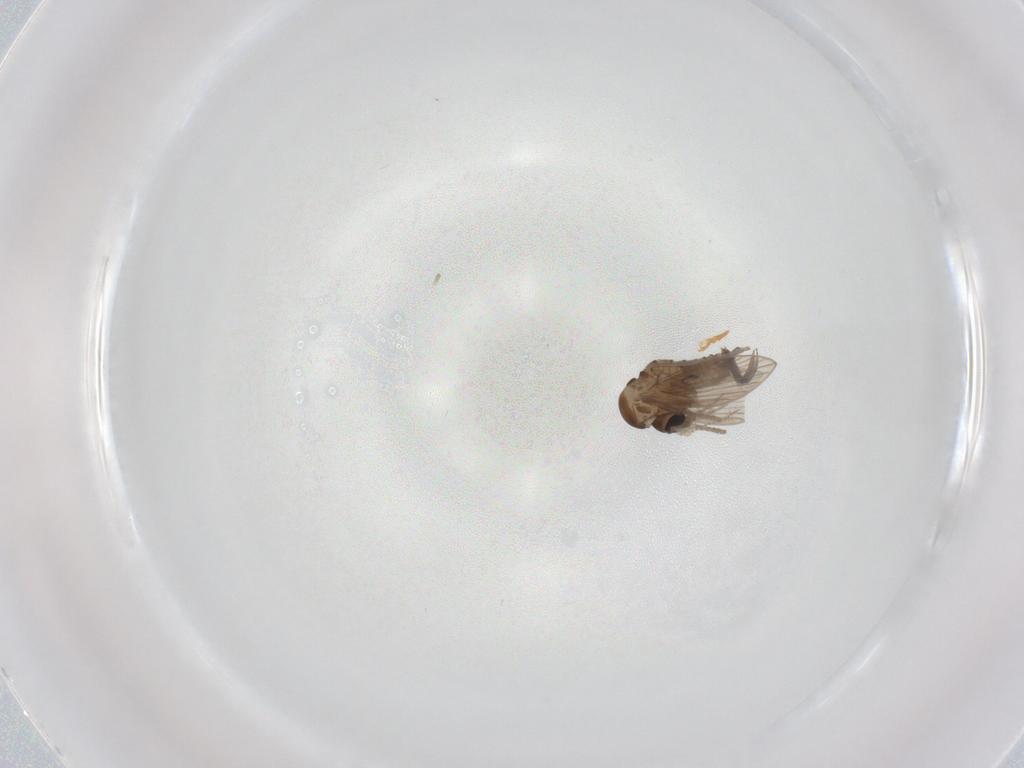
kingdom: Animalia
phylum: Arthropoda
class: Insecta
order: Diptera
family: Psychodidae
